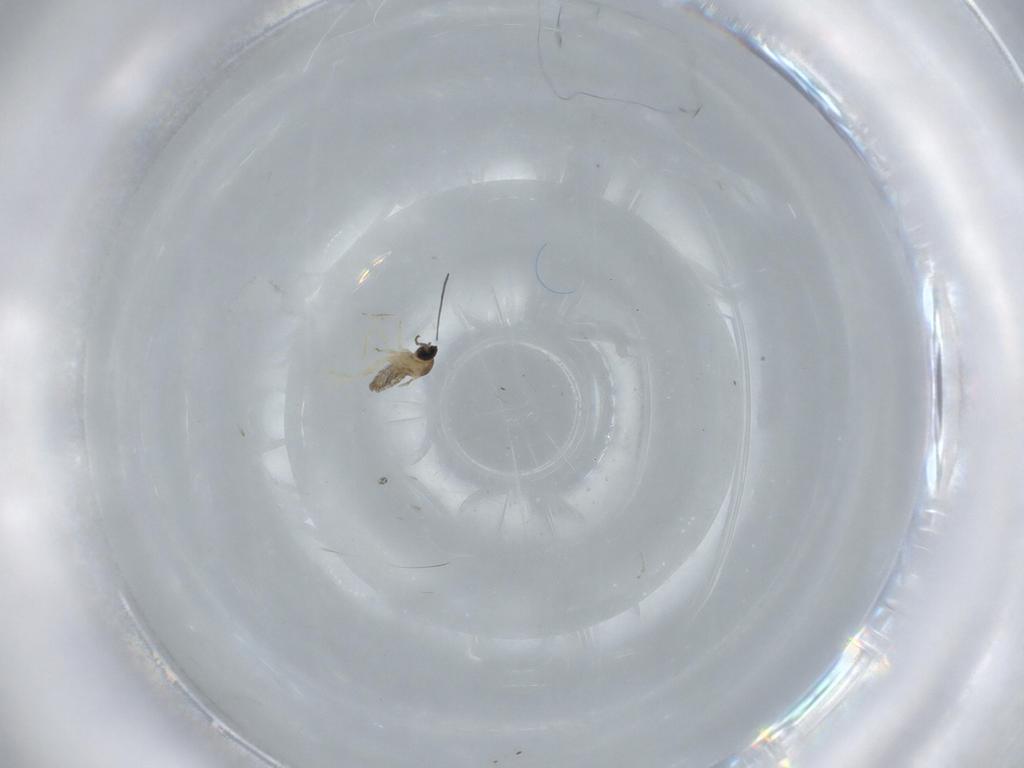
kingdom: Animalia
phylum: Arthropoda
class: Insecta
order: Diptera
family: Cecidomyiidae
